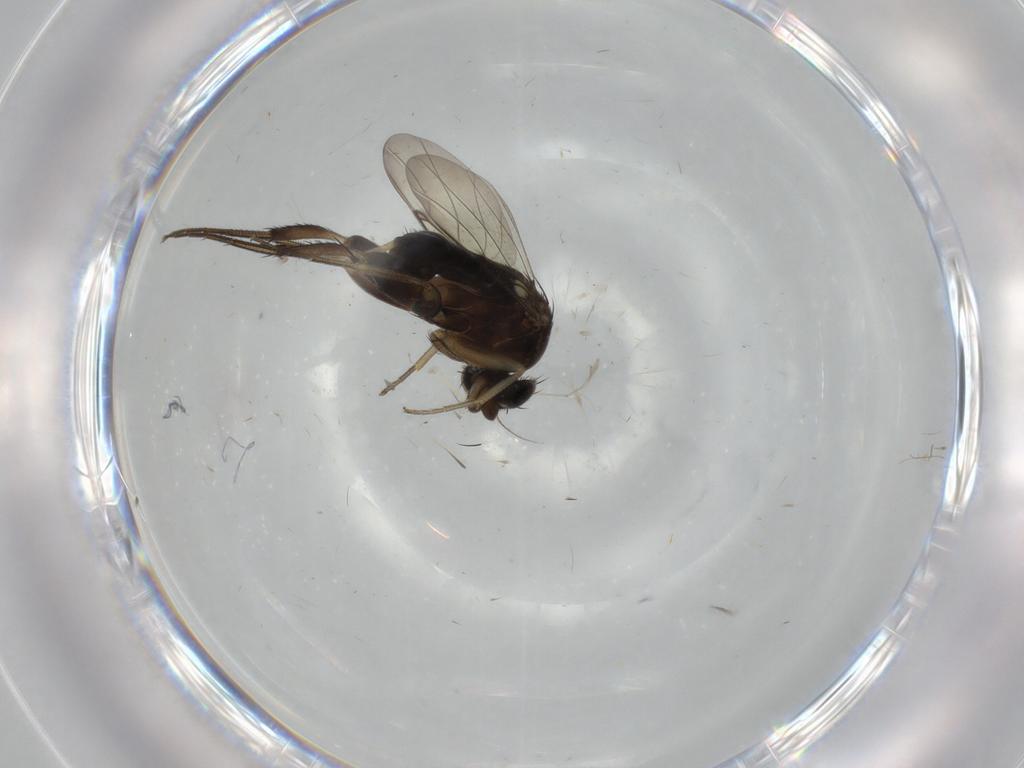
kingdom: Animalia
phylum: Arthropoda
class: Insecta
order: Diptera
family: Phoridae
